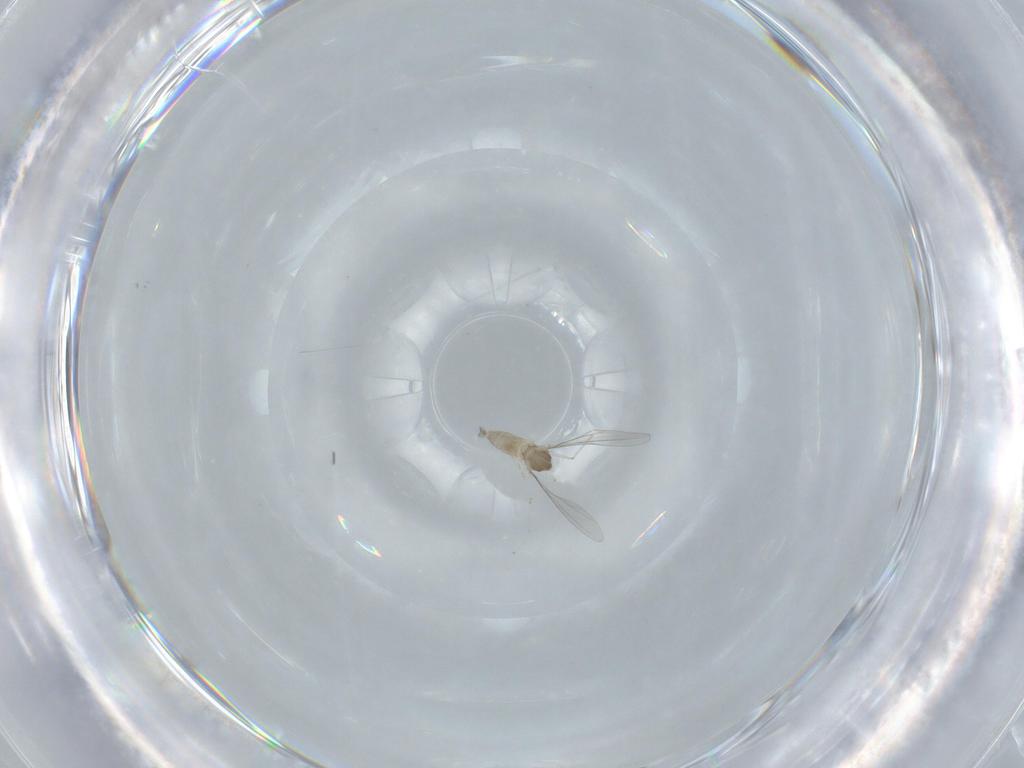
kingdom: Animalia
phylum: Arthropoda
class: Insecta
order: Diptera
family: Cecidomyiidae
